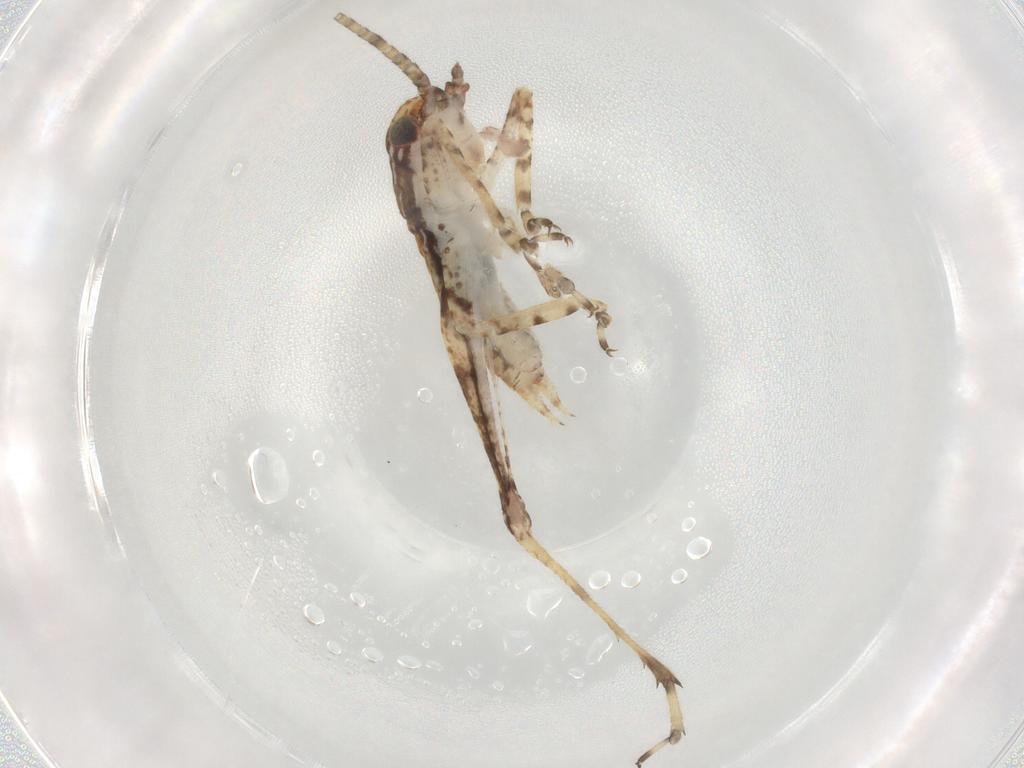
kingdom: Animalia
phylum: Arthropoda
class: Insecta
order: Orthoptera
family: Gryllidae
